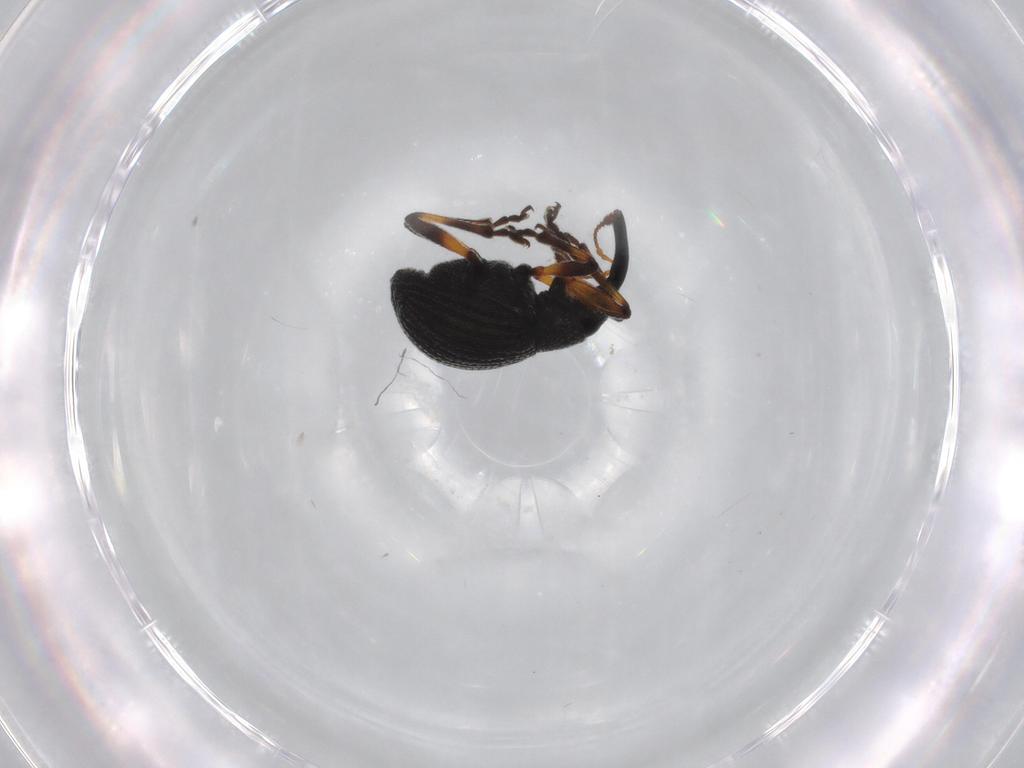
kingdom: Animalia
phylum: Arthropoda
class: Insecta
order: Coleoptera
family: Brentidae
